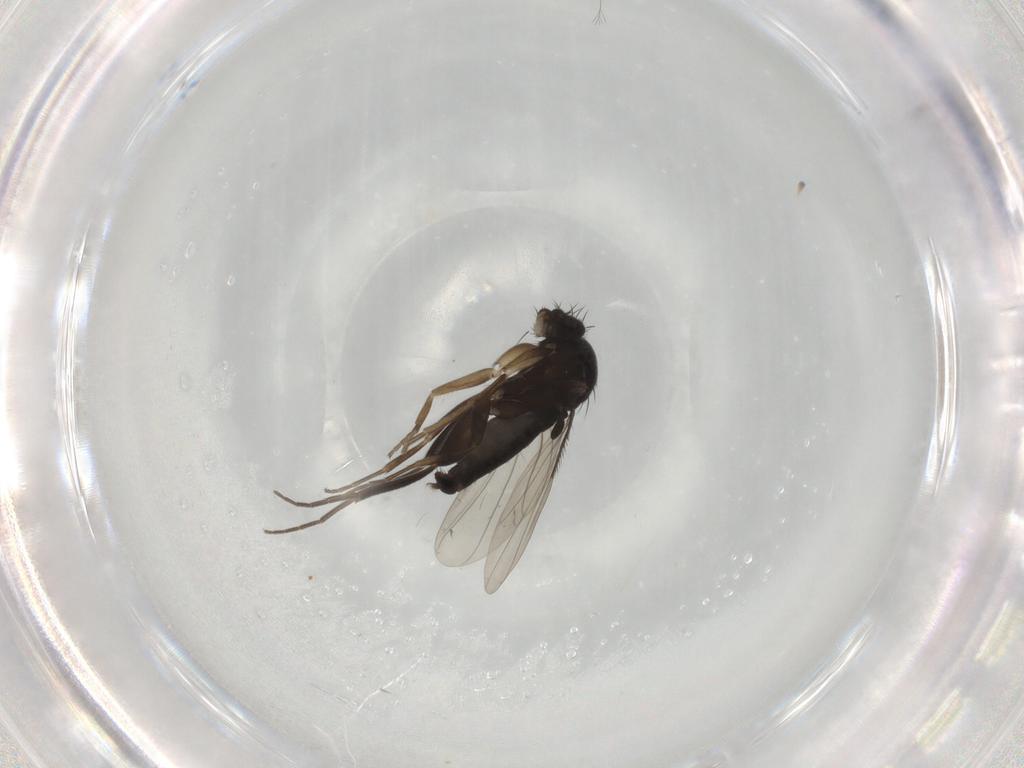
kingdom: Animalia
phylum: Arthropoda
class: Insecta
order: Diptera
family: Phoridae
